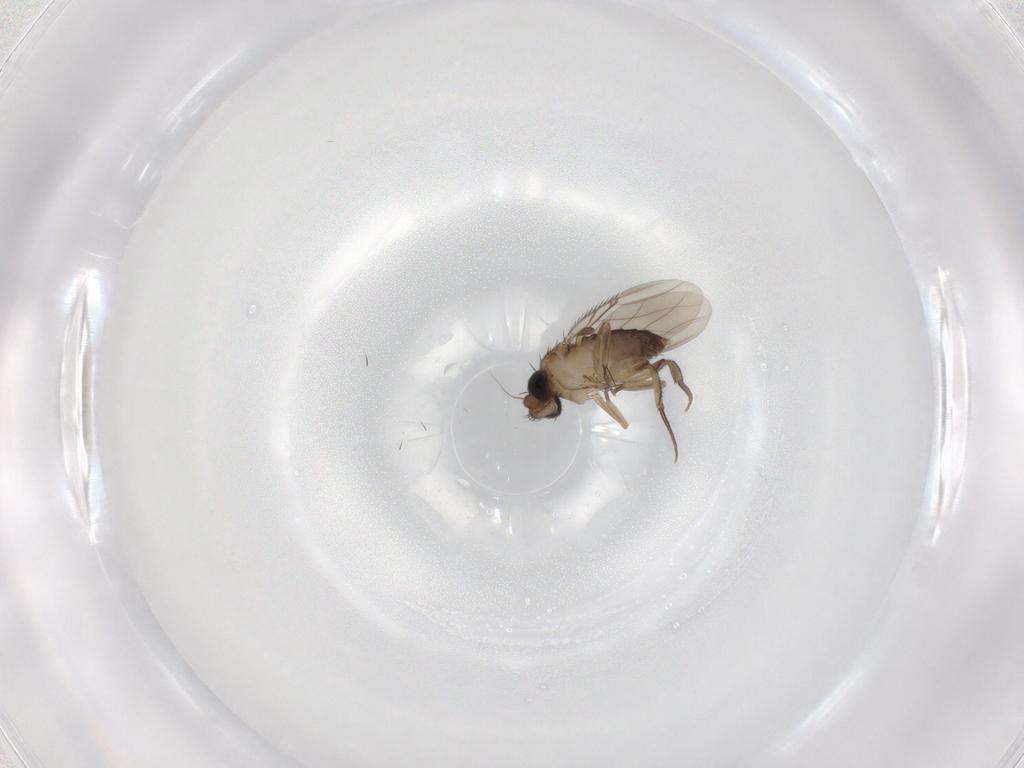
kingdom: Animalia
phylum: Arthropoda
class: Insecta
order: Diptera
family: Phoridae
